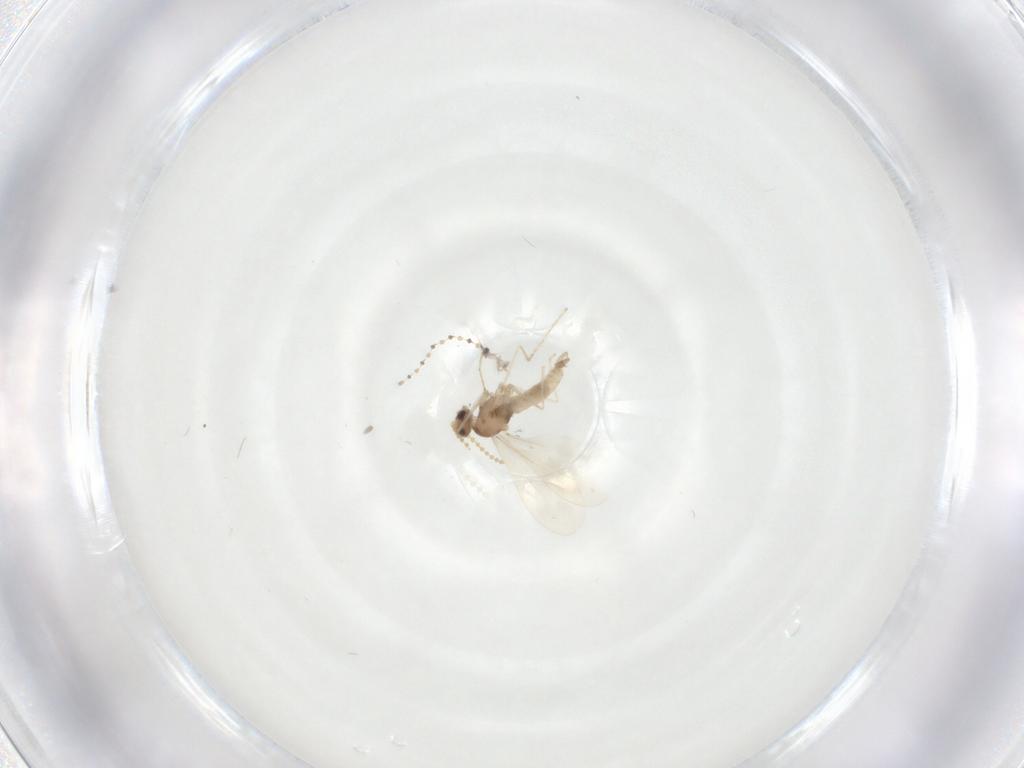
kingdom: Animalia
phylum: Arthropoda
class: Insecta
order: Diptera
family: Cecidomyiidae
